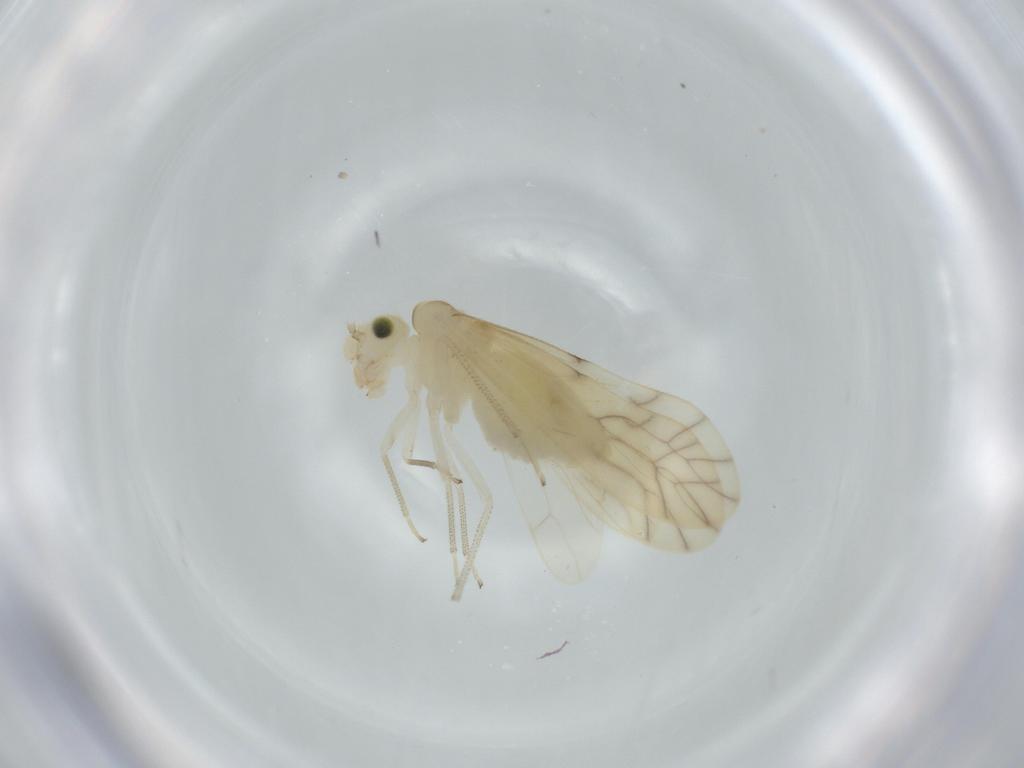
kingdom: Animalia
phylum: Arthropoda
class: Insecta
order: Psocodea
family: Caeciliusidae
